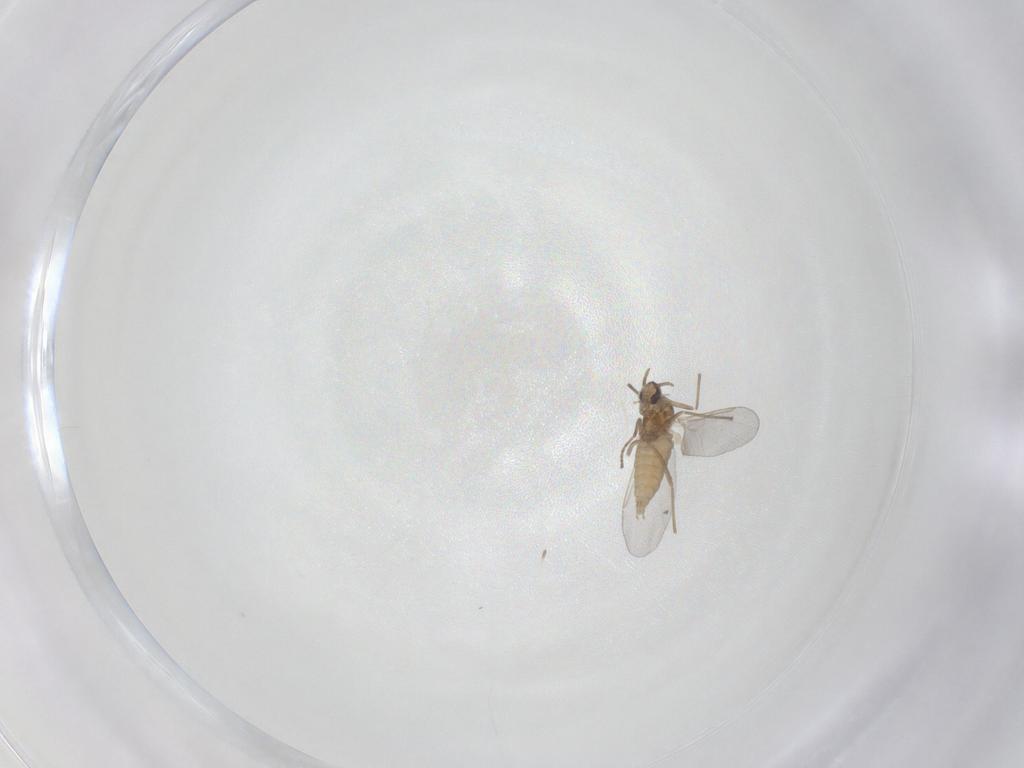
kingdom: Animalia
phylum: Arthropoda
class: Insecta
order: Diptera
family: Cecidomyiidae
